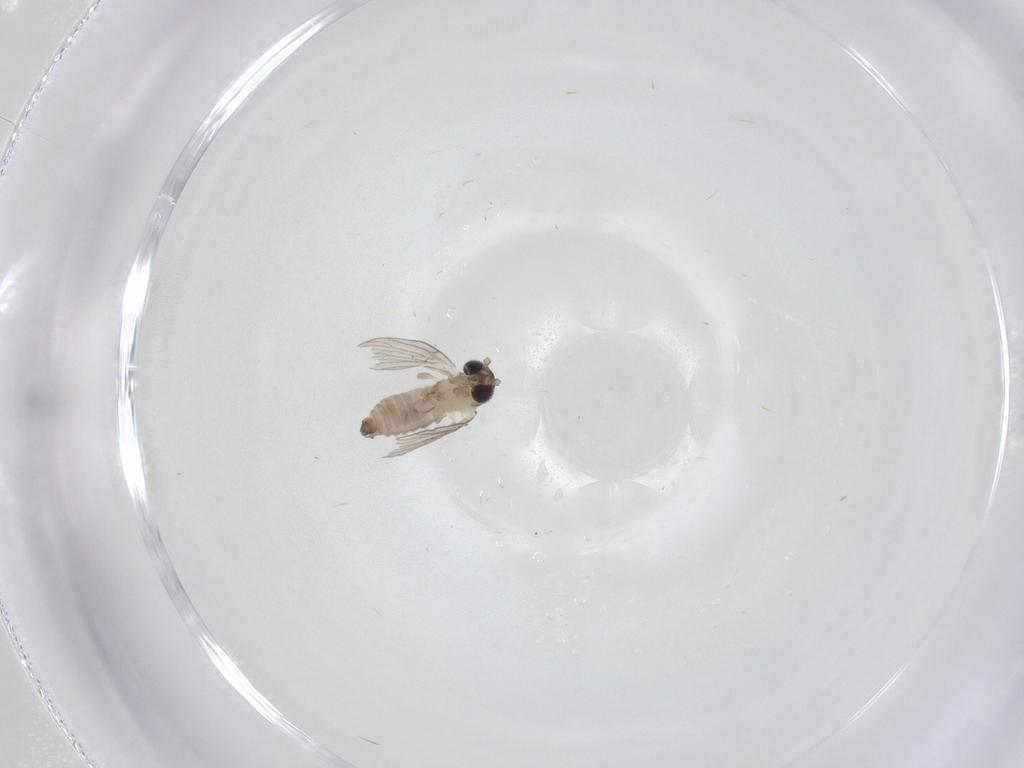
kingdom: Animalia
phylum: Arthropoda
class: Insecta
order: Diptera
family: Psychodidae
